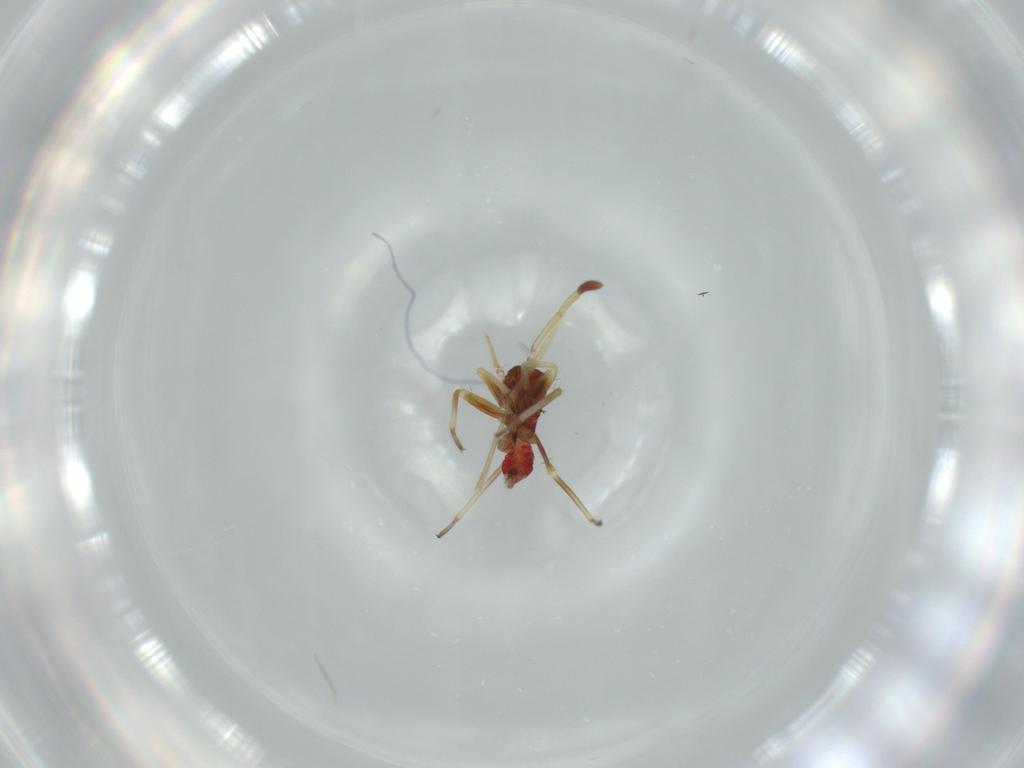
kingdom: Animalia
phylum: Arthropoda
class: Insecta
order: Hemiptera
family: Miridae
